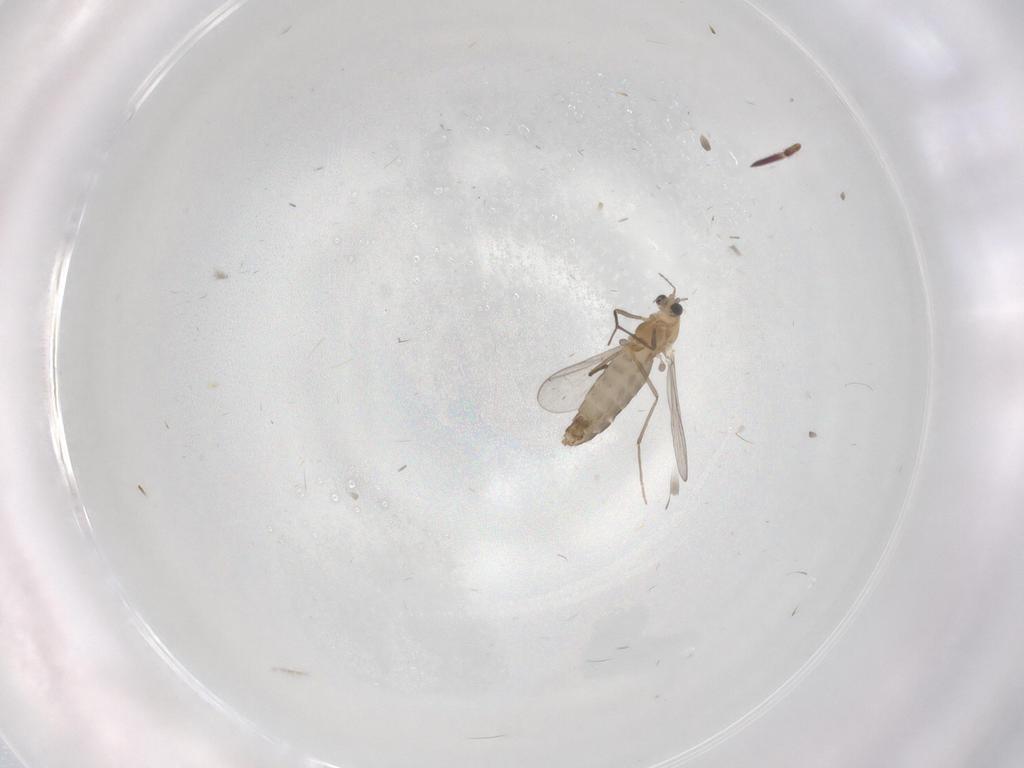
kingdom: Animalia
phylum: Arthropoda
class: Insecta
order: Diptera
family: Chironomidae
